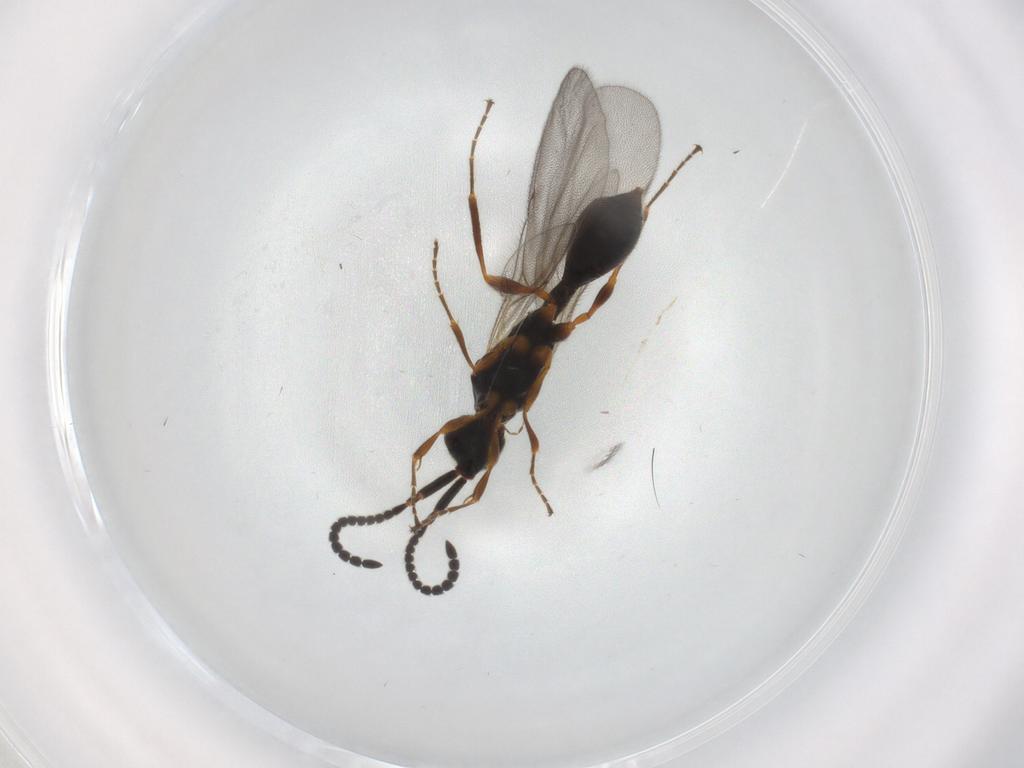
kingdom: Animalia
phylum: Arthropoda
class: Insecta
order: Hymenoptera
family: Diapriidae
